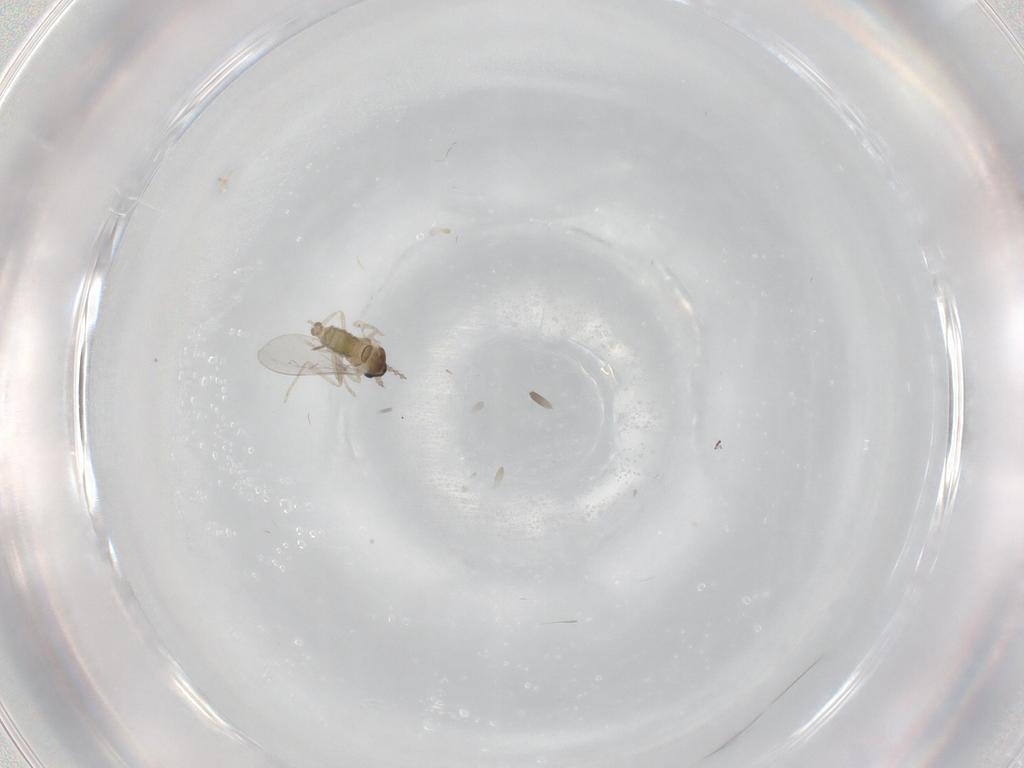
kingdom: Animalia
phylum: Arthropoda
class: Insecta
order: Diptera
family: Cecidomyiidae
